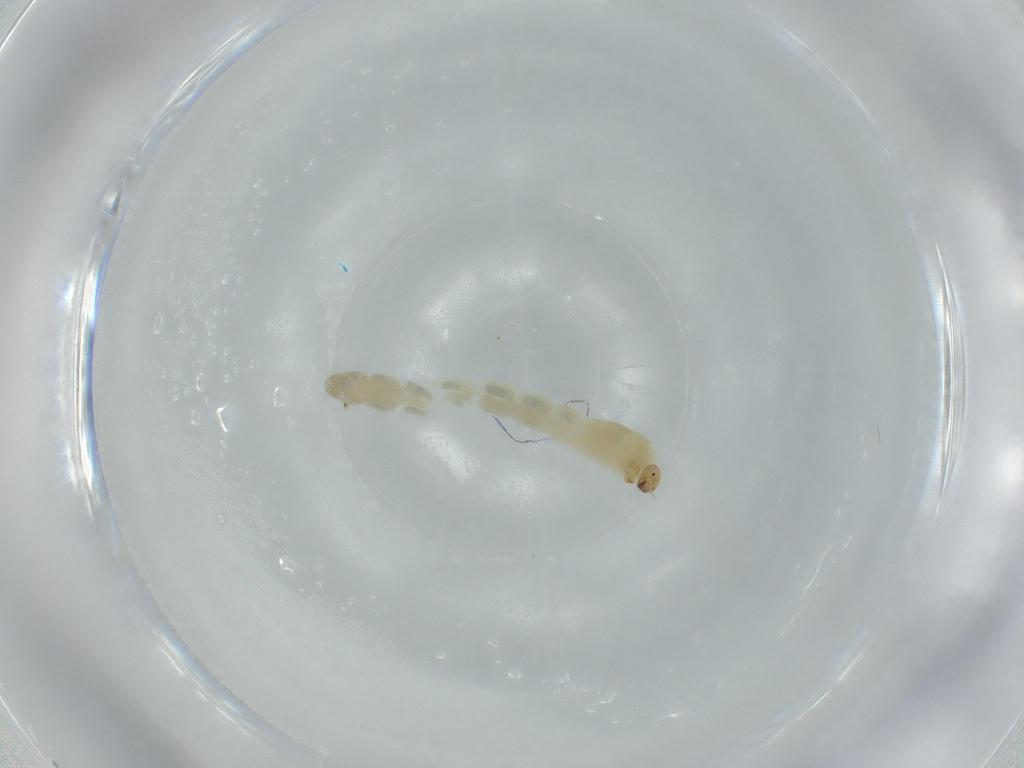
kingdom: Animalia
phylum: Arthropoda
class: Insecta
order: Diptera
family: Chironomidae
